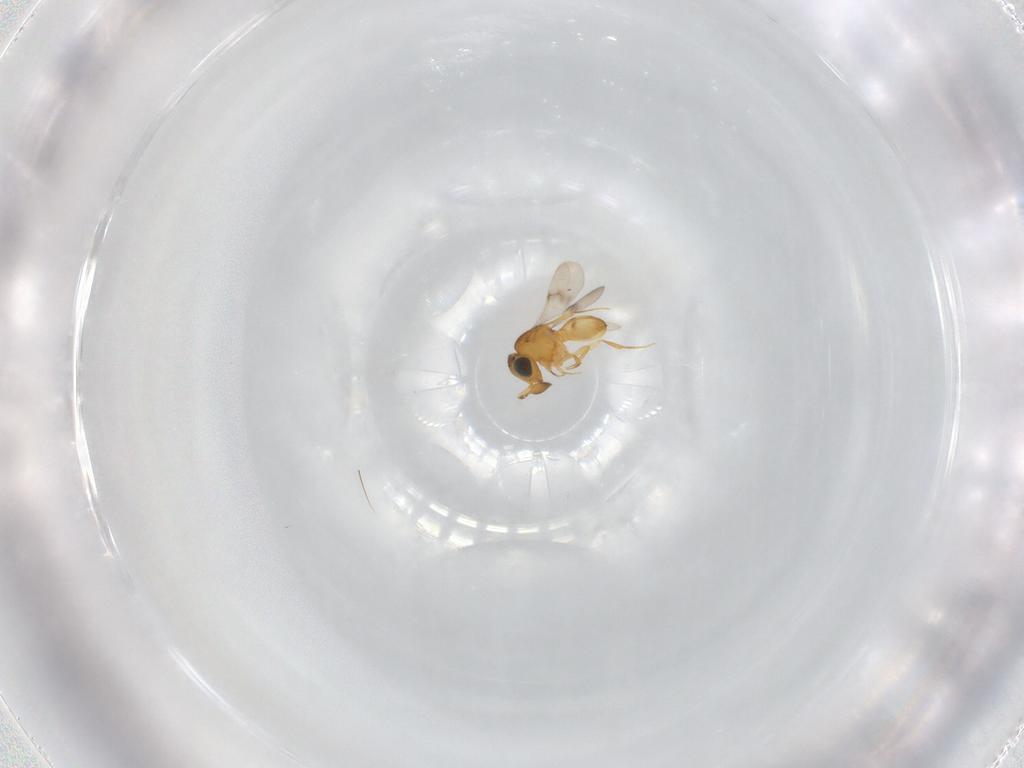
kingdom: Animalia
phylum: Arthropoda
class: Insecta
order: Hymenoptera
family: Scelionidae
